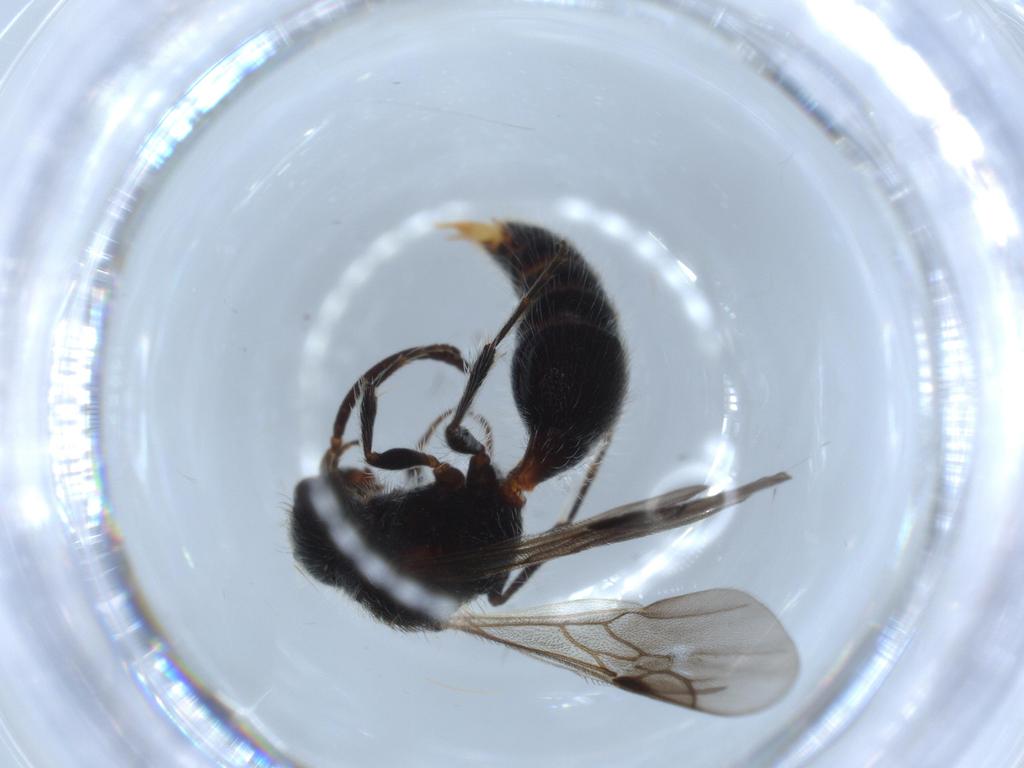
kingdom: Animalia
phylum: Arthropoda
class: Insecta
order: Hymenoptera
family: Mutillidae
